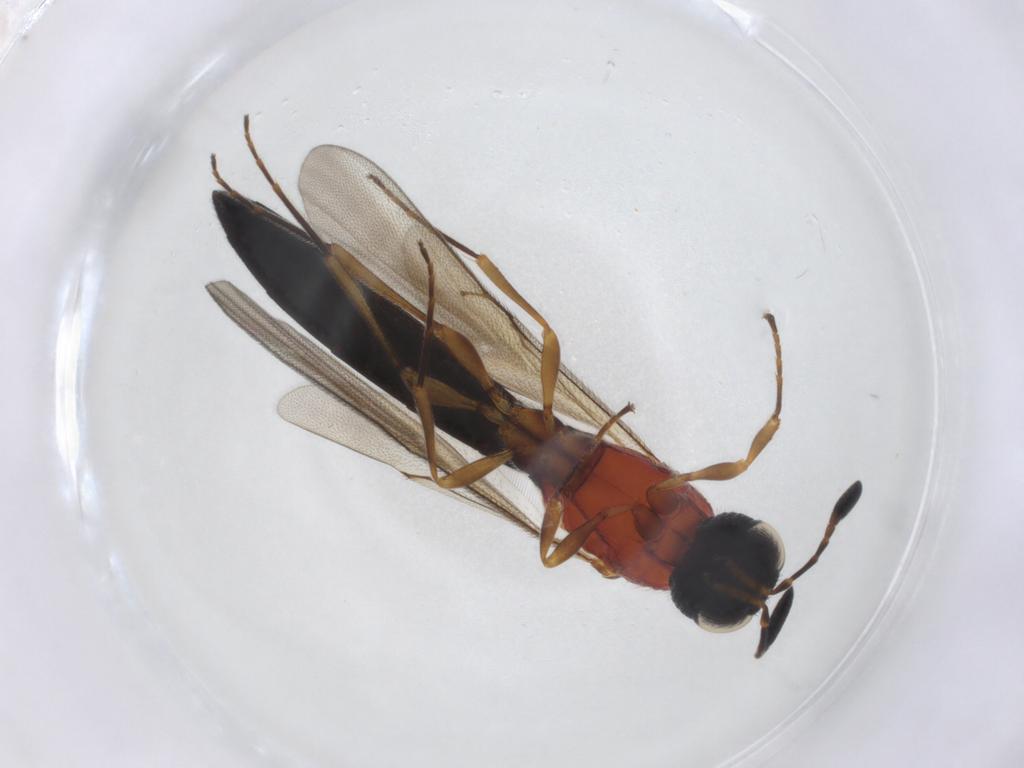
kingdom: Animalia
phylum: Arthropoda
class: Insecta
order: Hymenoptera
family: Scelionidae
